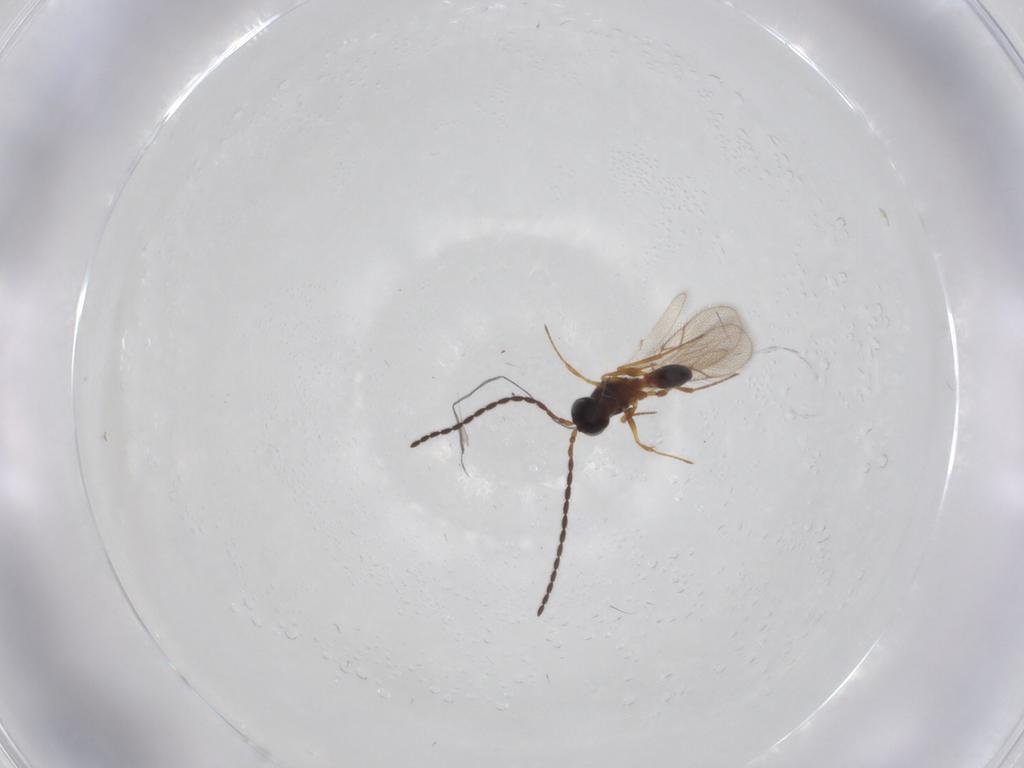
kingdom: Animalia
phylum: Arthropoda
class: Insecta
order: Hymenoptera
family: Figitidae
